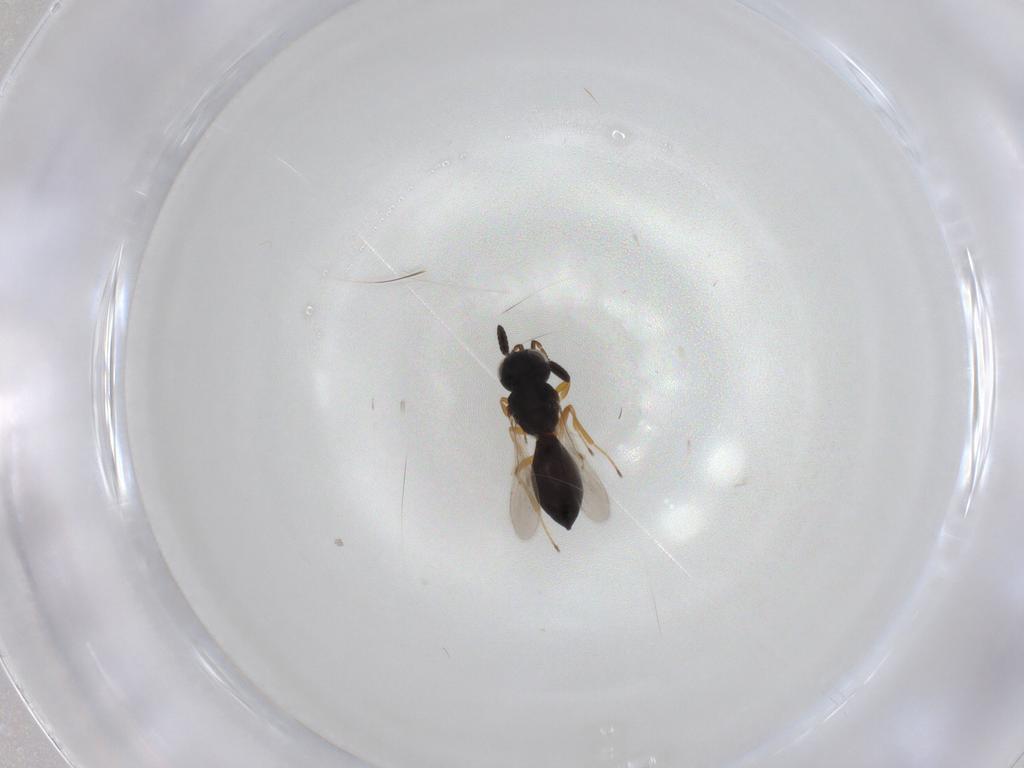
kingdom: Animalia
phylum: Arthropoda
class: Insecta
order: Hymenoptera
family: Scelionidae
